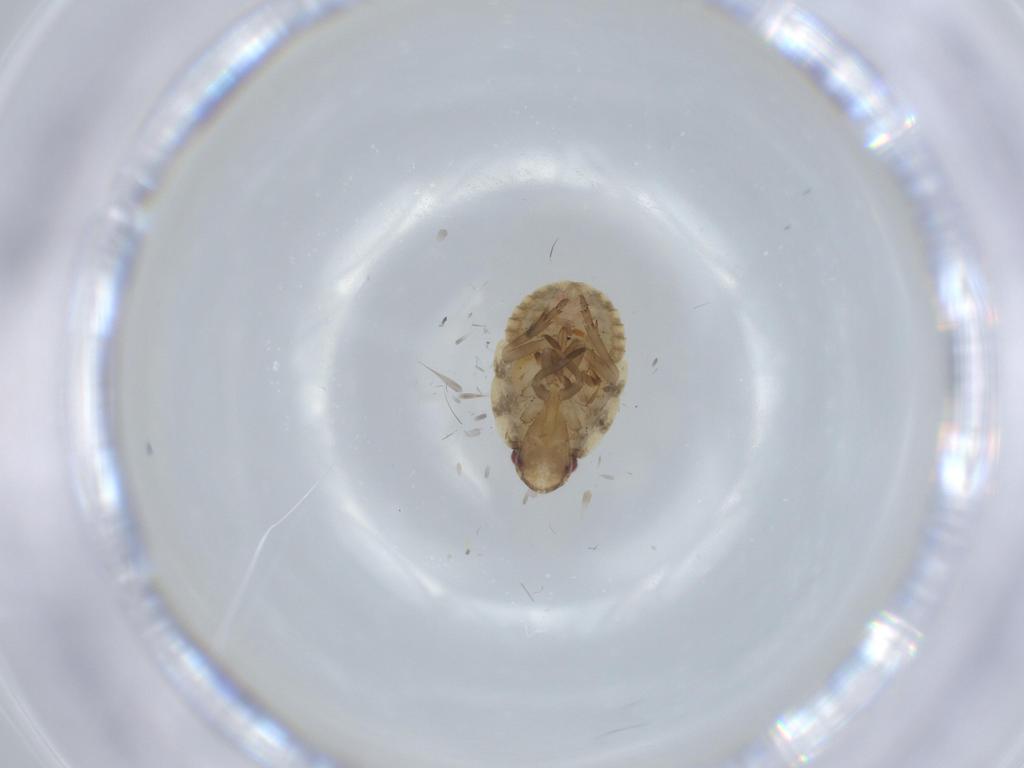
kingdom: Animalia
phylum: Arthropoda
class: Insecta
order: Hemiptera
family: Flatidae
